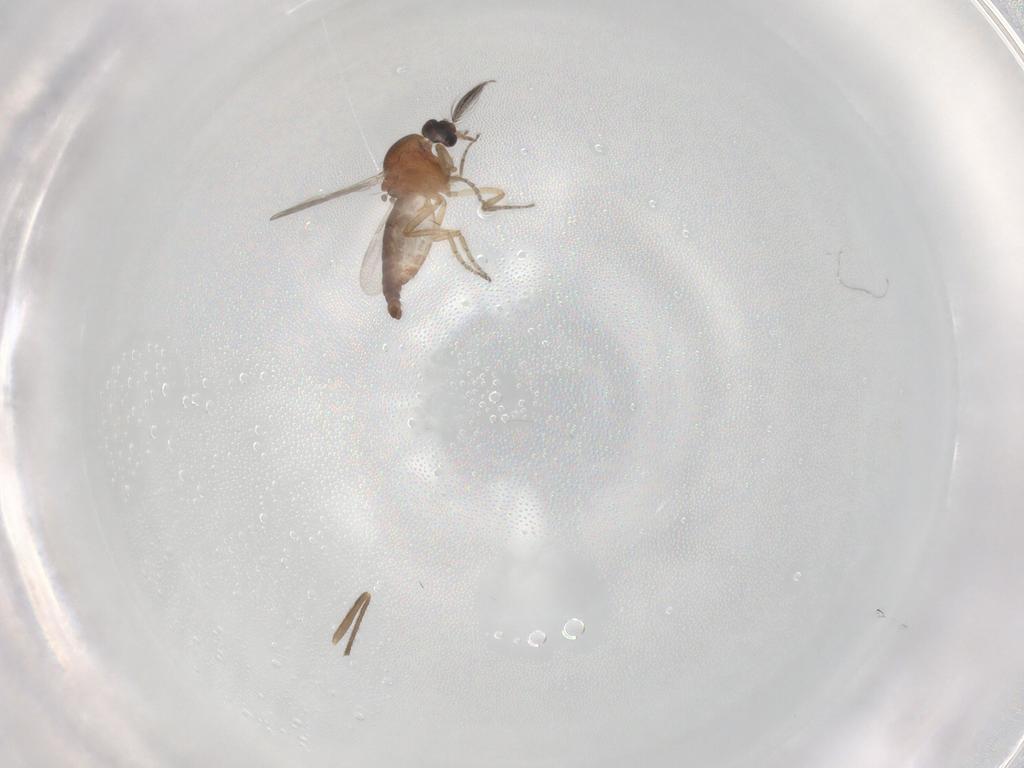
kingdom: Animalia
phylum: Arthropoda
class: Insecta
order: Diptera
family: Ceratopogonidae
